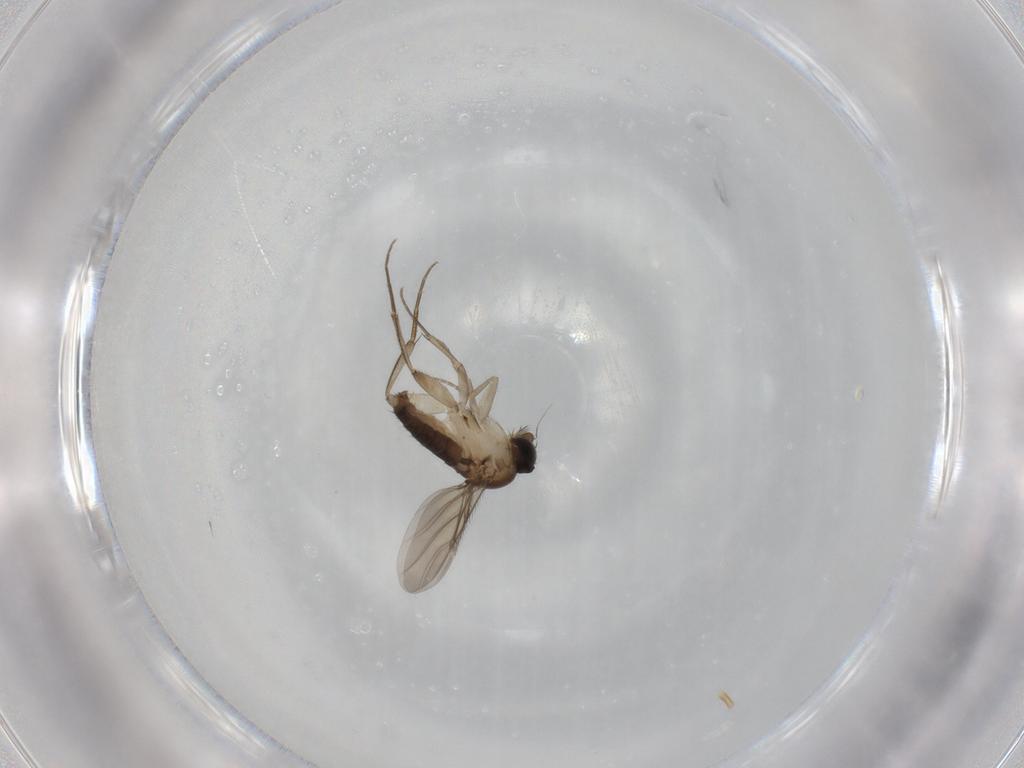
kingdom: Animalia
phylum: Arthropoda
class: Insecta
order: Diptera
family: Phoridae
